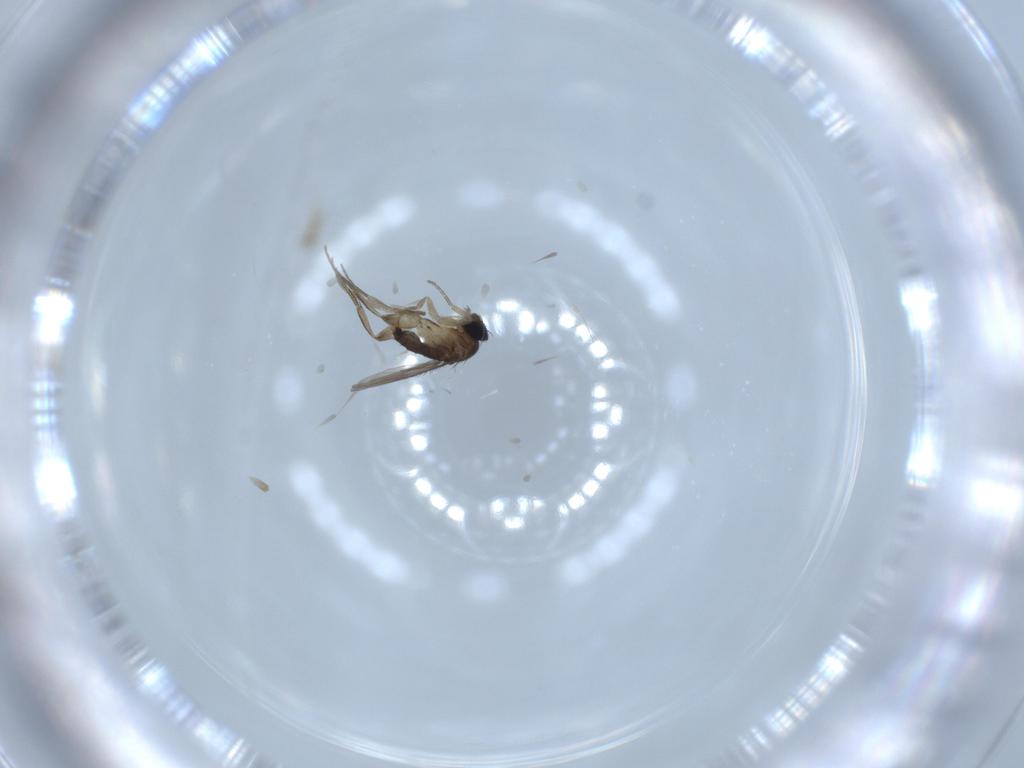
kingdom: Animalia
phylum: Arthropoda
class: Insecta
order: Diptera
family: Phoridae
